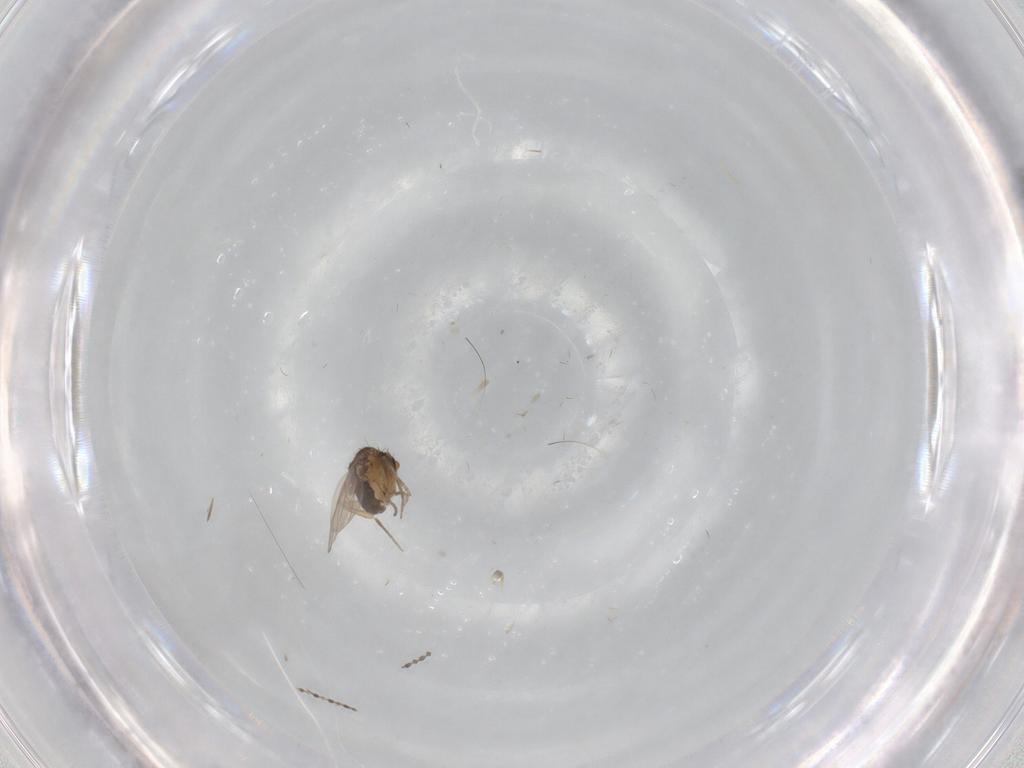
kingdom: Animalia
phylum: Arthropoda
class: Insecta
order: Diptera
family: Phoridae
